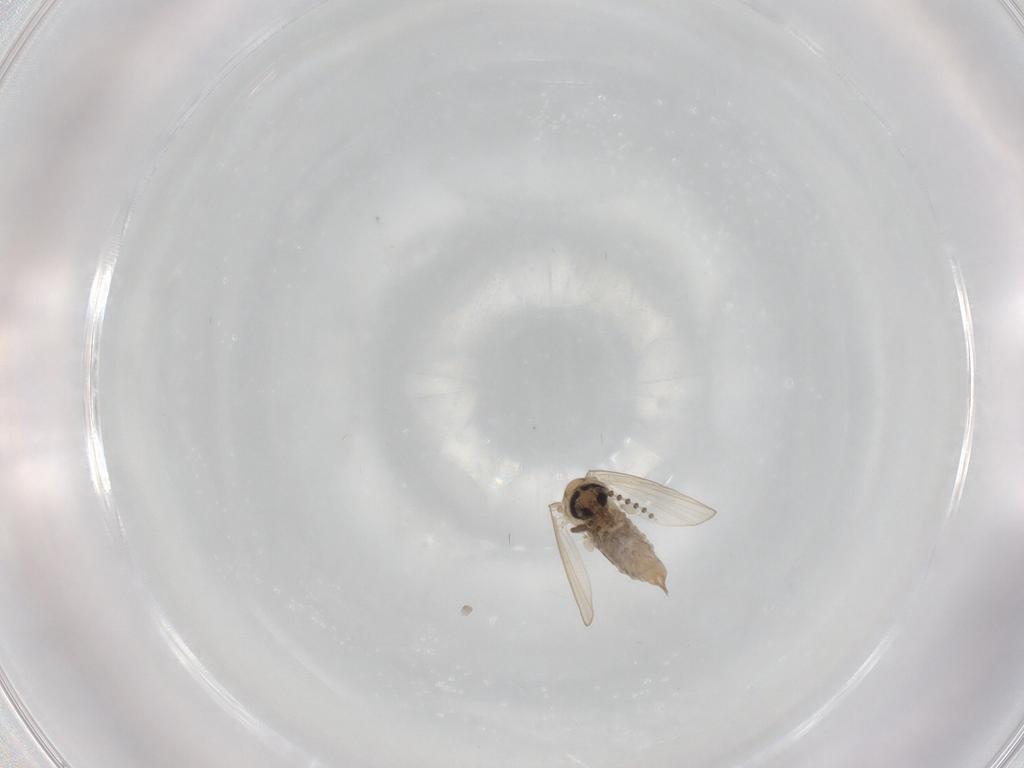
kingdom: Animalia
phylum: Arthropoda
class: Insecta
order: Diptera
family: Psychodidae
